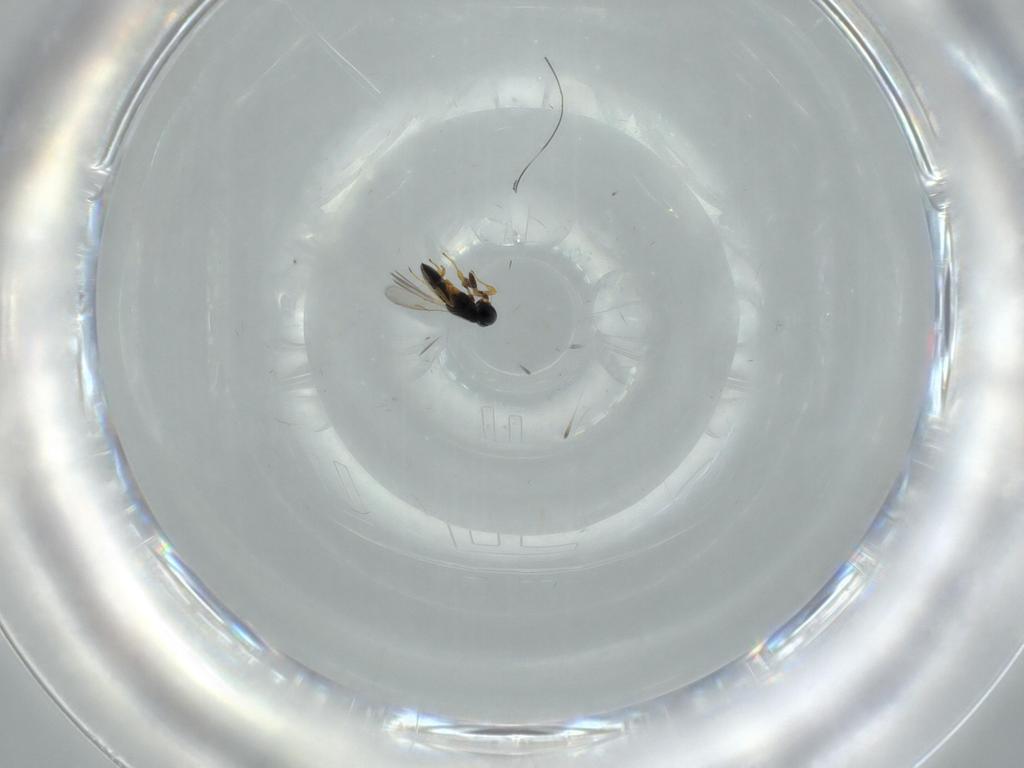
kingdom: Animalia
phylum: Arthropoda
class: Insecta
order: Hymenoptera
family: Scelionidae
